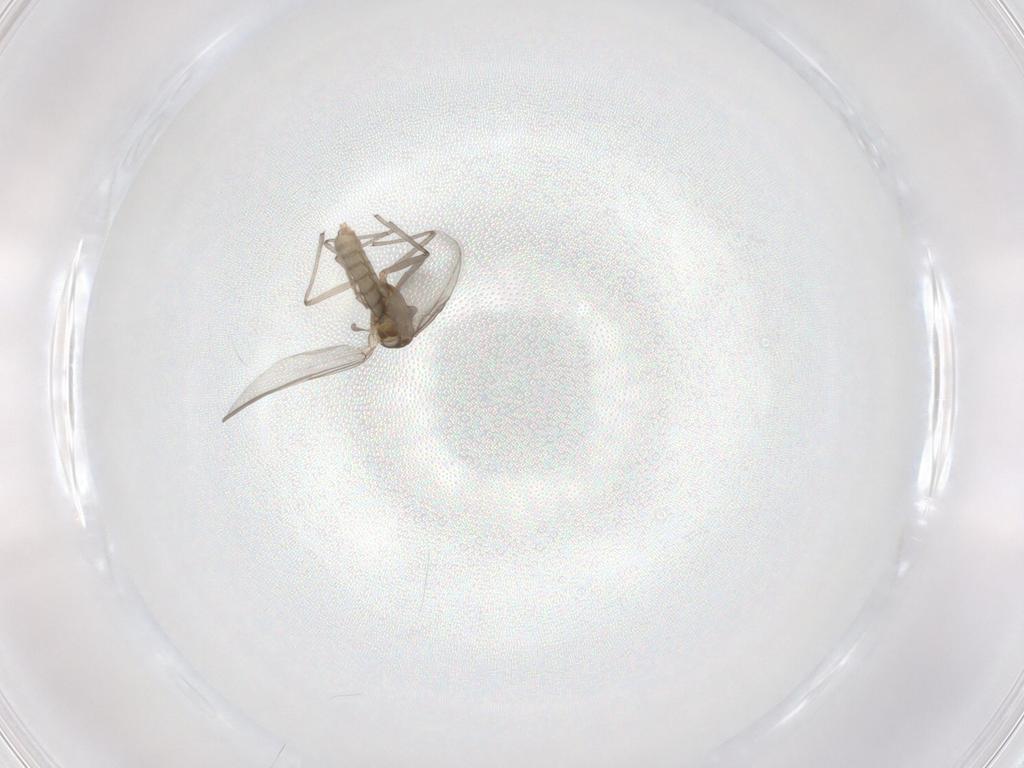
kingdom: Animalia
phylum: Arthropoda
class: Insecta
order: Diptera
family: Chironomidae
